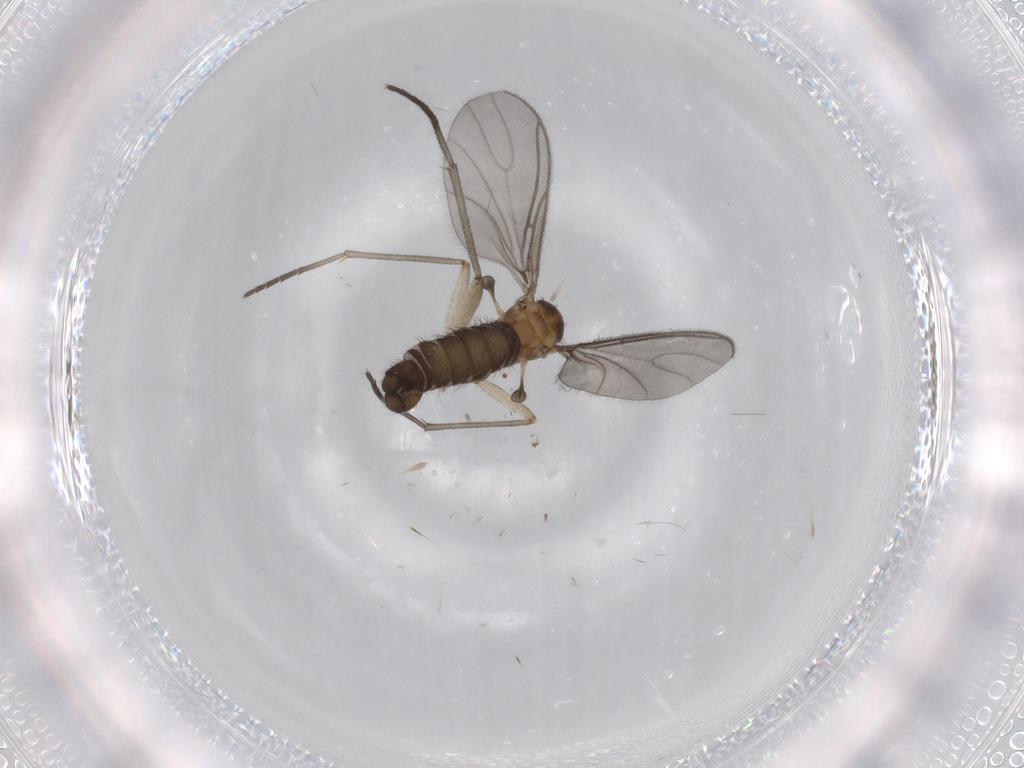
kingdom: Animalia
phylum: Arthropoda
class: Insecta
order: Diptera
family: Sciaridae
